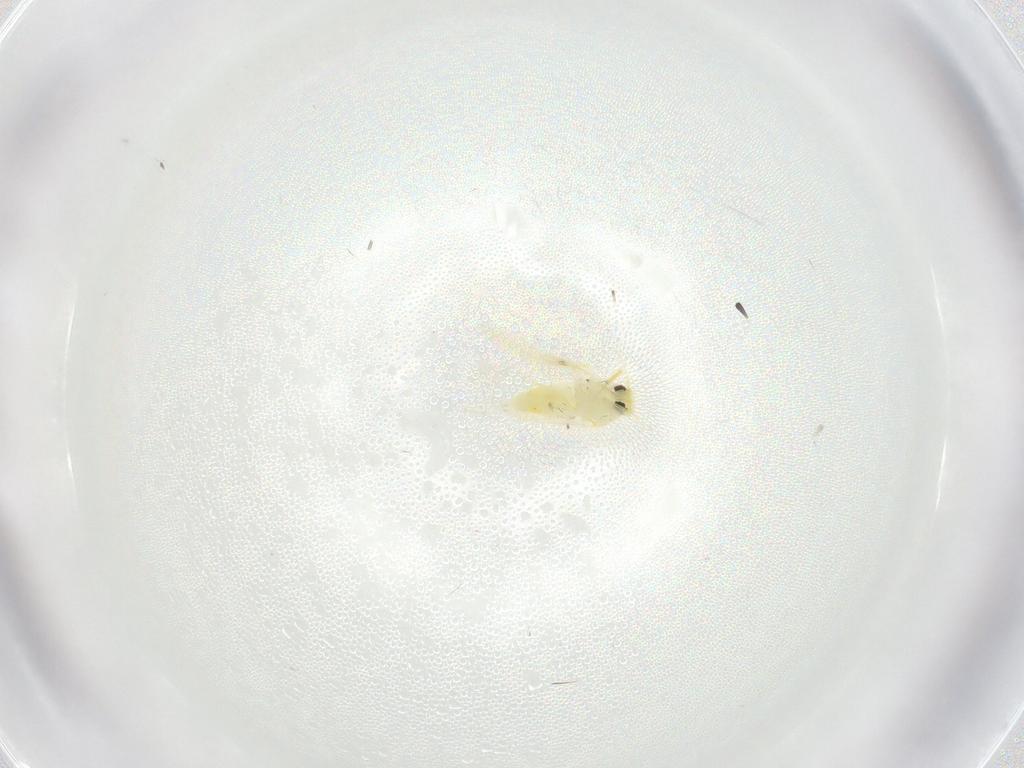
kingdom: Animalia
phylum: Arthropoda
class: Insecta
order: Hemiptera
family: Aleyrodidae
